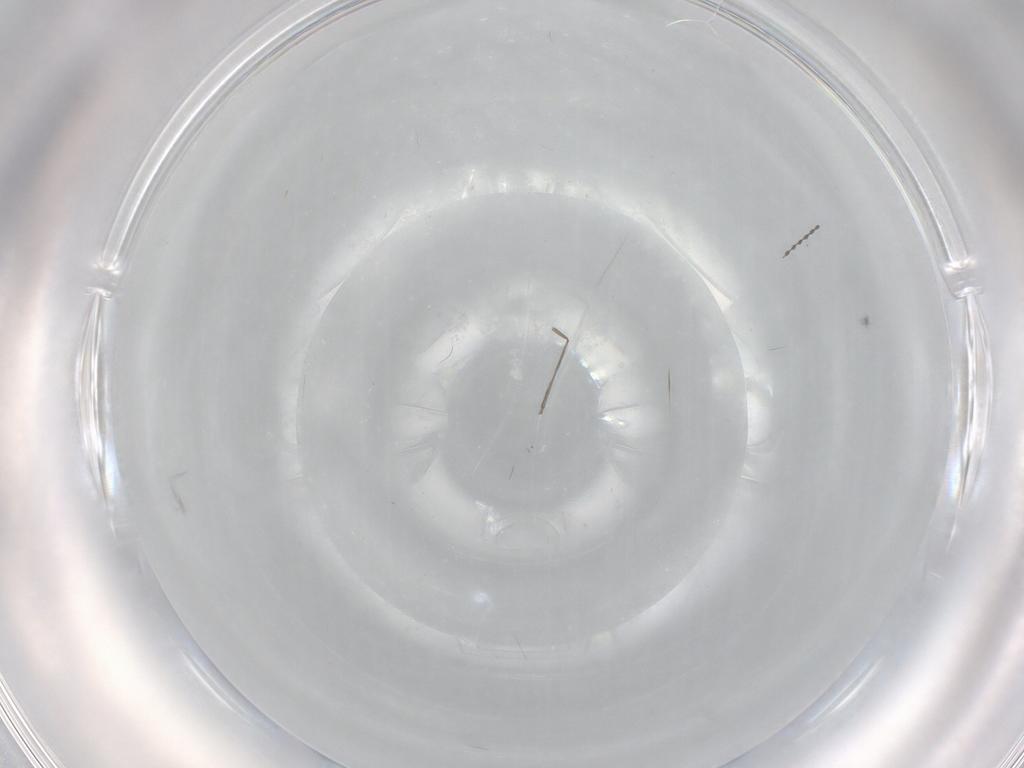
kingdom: Animalia
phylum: Arthropoda
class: Insecta
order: Diptera
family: Cecidomyiidae
